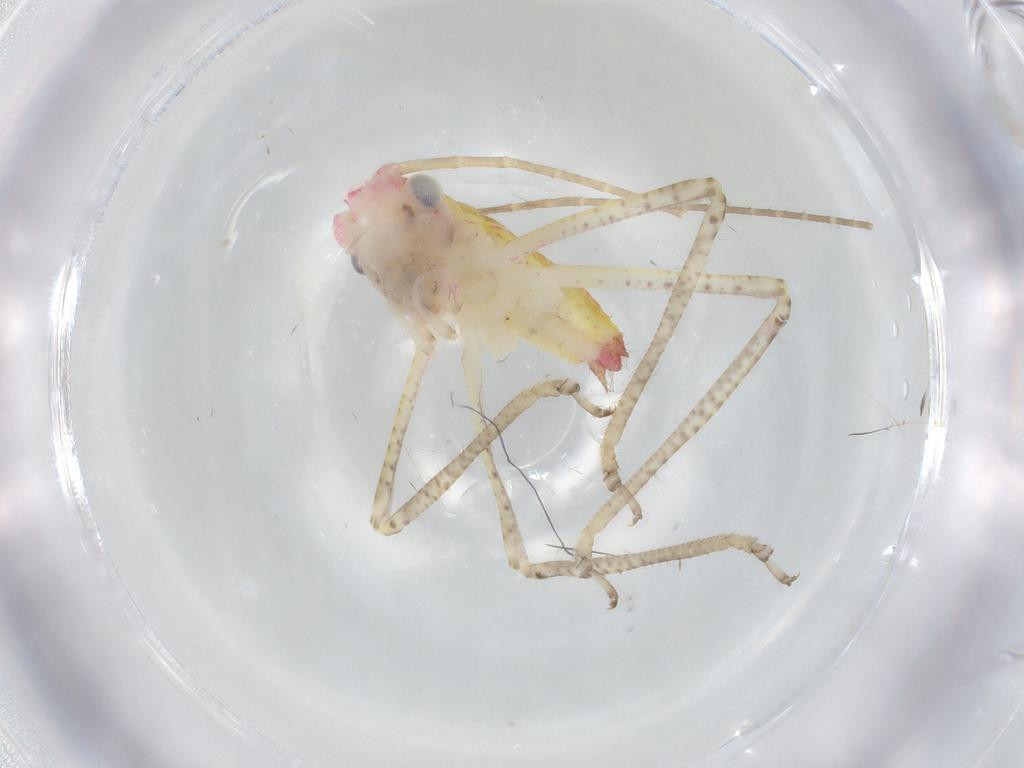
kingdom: Animalia
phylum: Arthropoda
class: Insecta
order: Orthoptera
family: Tettigoniidae
